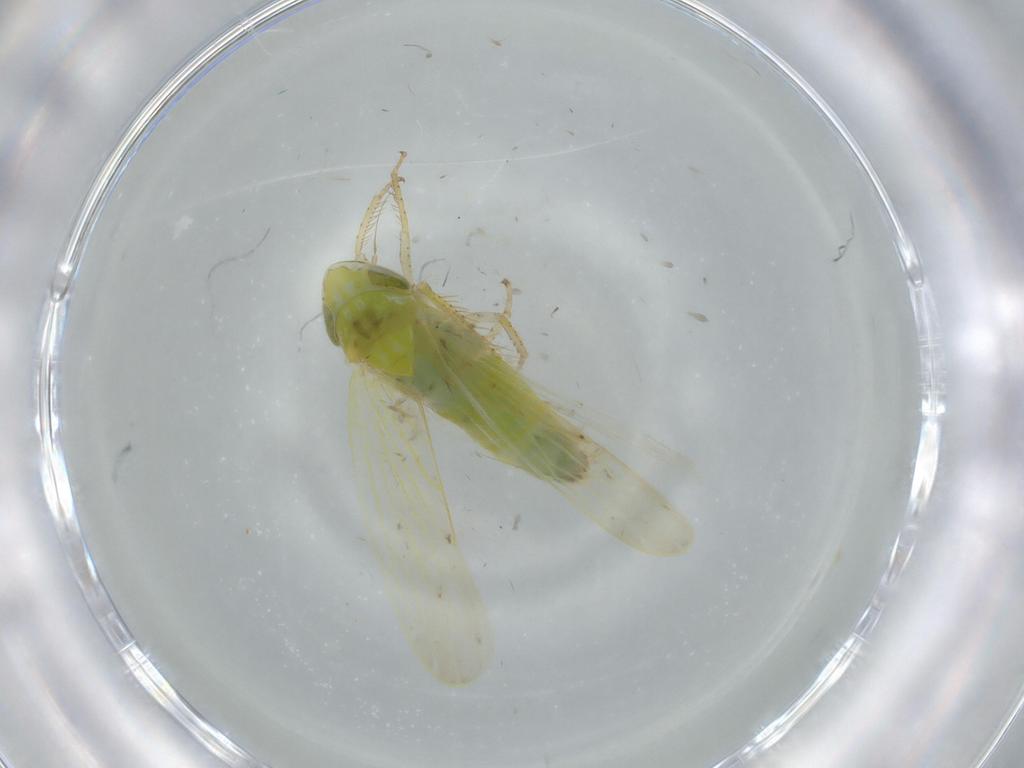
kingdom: Animalia
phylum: Arthropoda
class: Insecta
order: Hemiptera
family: Cicadellidae
